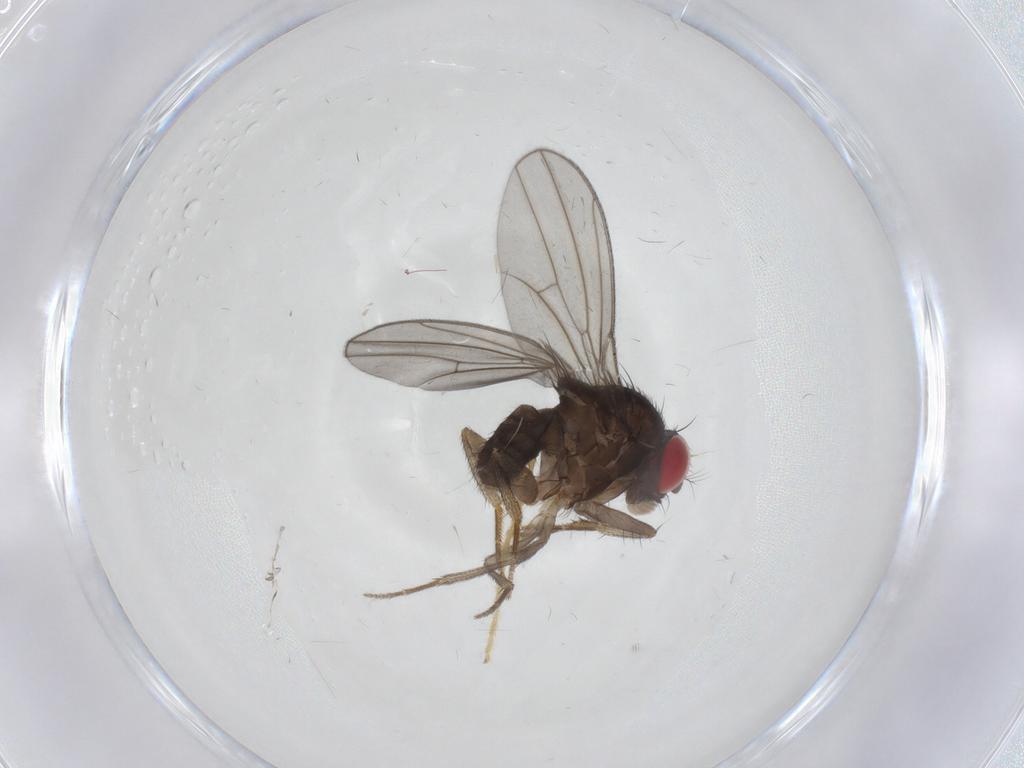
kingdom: Animalia
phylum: Arthropoda
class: Insecta
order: Diptera
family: Drosophilidae
